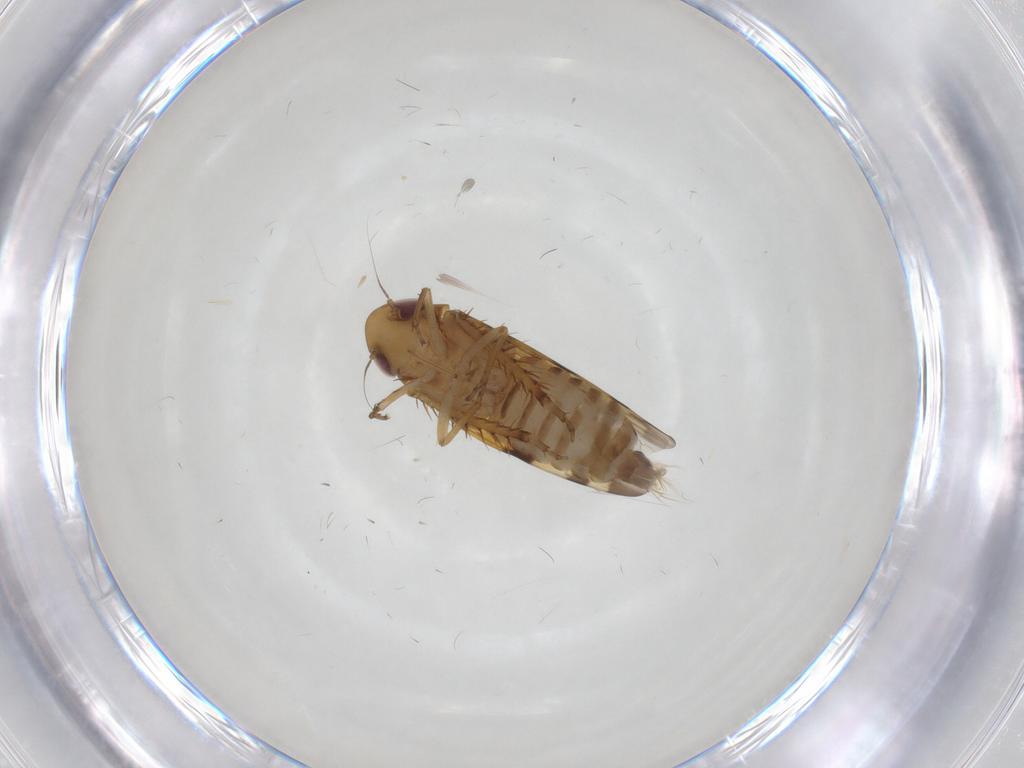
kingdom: Animalia
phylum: Arthropoda
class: Insecta
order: Hemiptera
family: Cicadellidae
